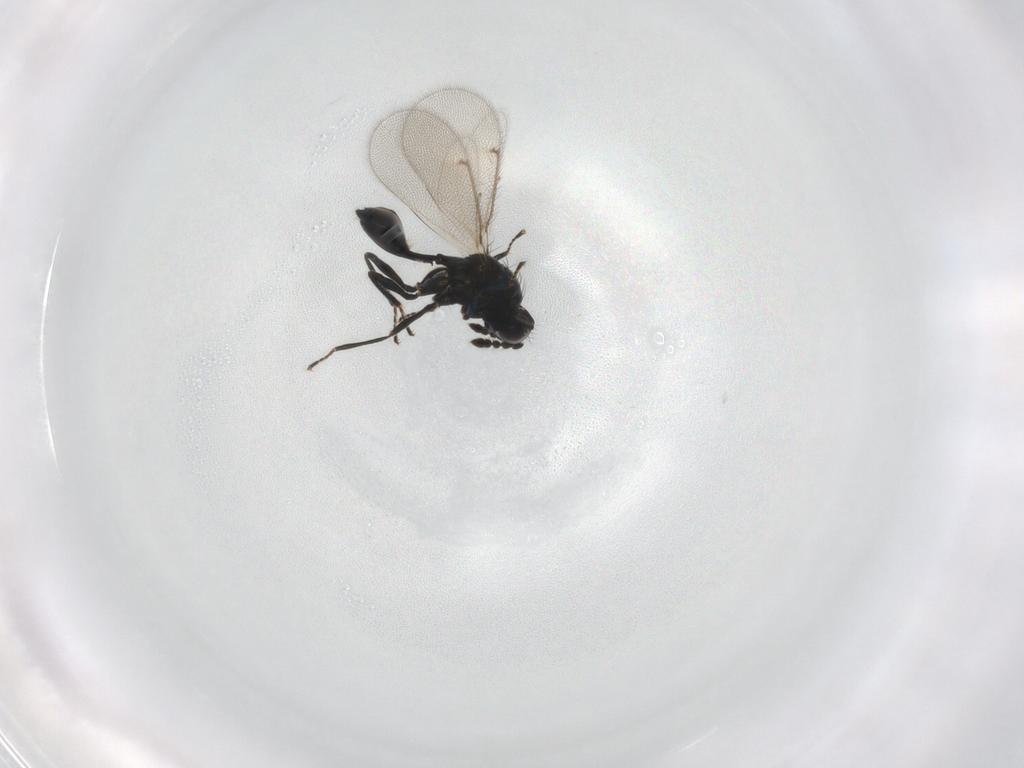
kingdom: Animalia
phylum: Arthropoda
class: Insecta
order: Hymenoptera
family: Eulophidae
